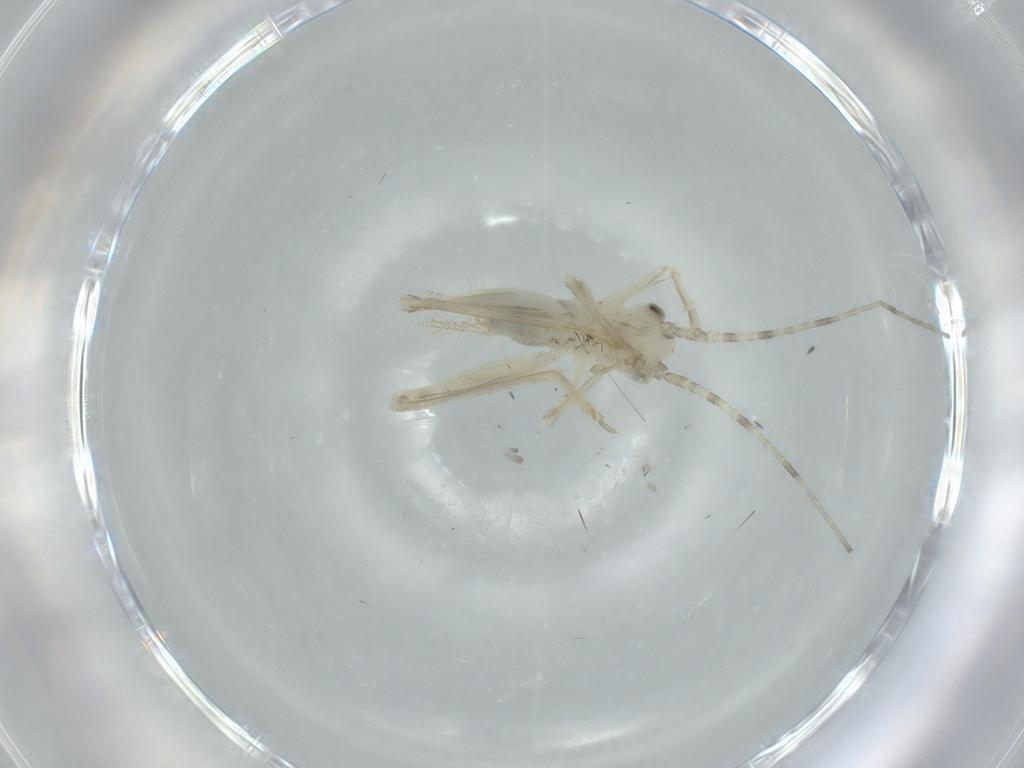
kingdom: Animalia
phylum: Arthropoda
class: Insecta
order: Orthoptera
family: Trigonidiidae
